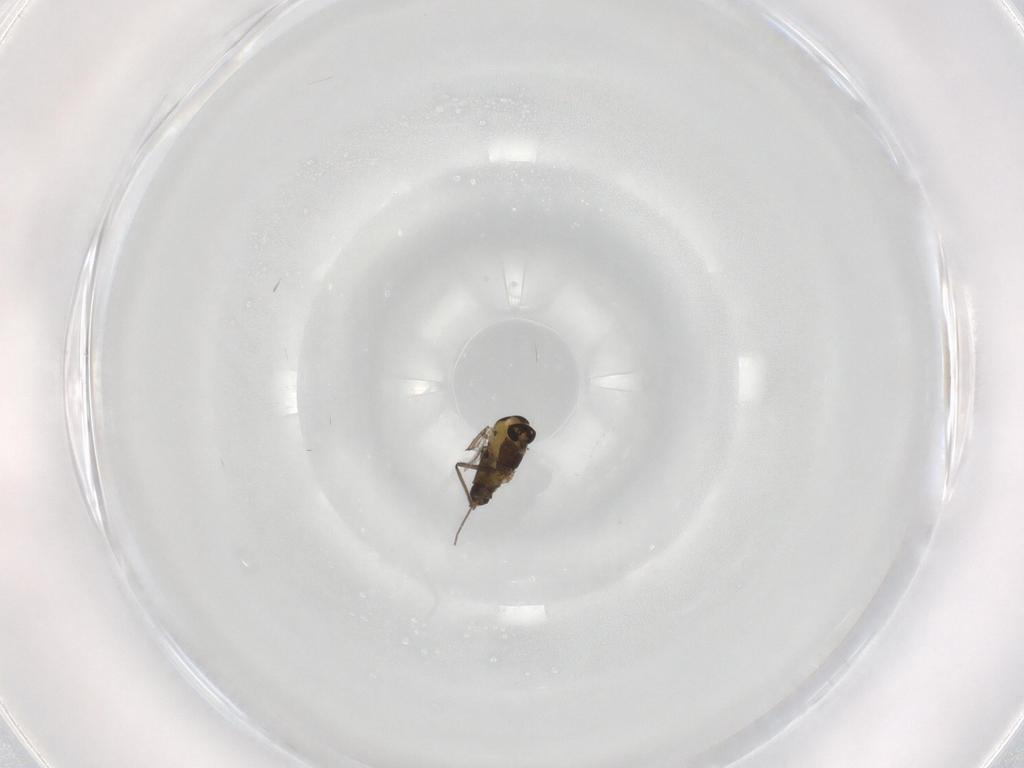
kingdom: Animalia
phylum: Arthropoda
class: Insecta
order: Diptera
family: Chironomidae
